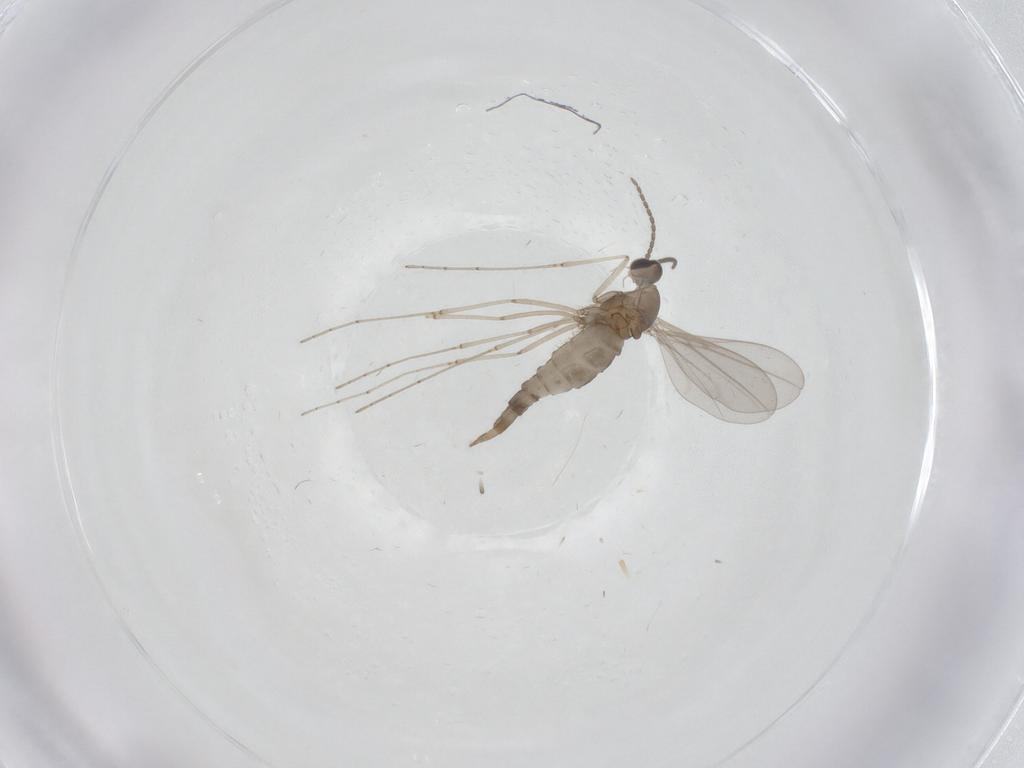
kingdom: Animalia
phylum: Arthropoda
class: Insecta
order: Diptera
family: Cecidomyiidae
